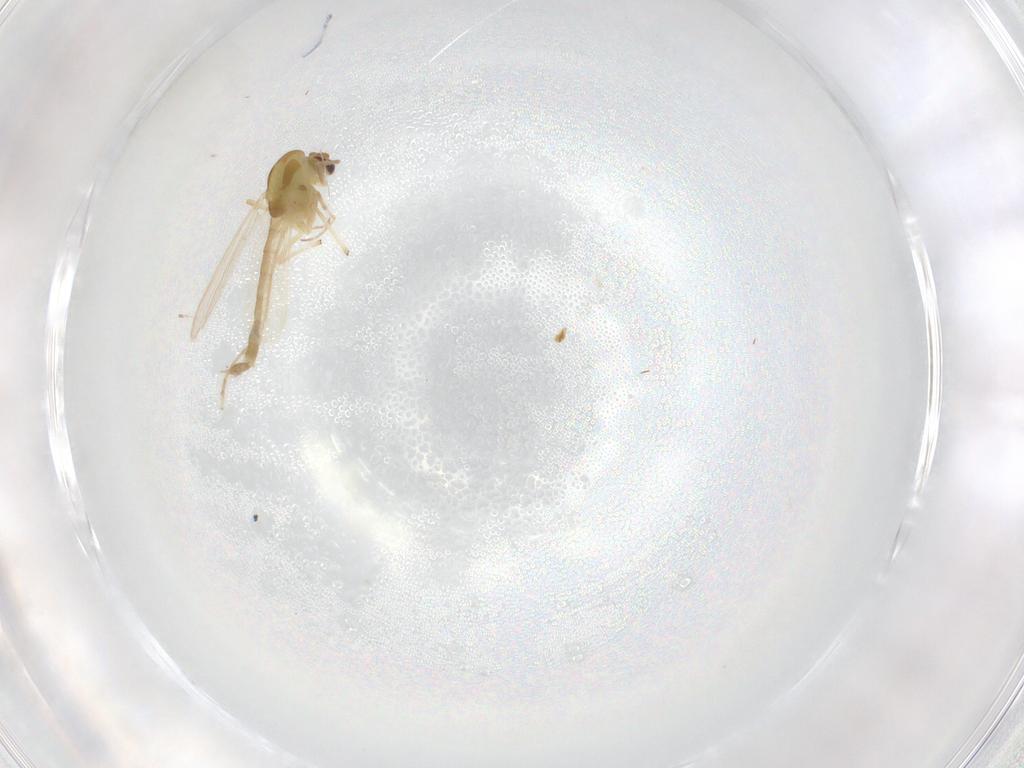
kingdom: Animalia
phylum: Arthropoda
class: Insecta
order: Diptera
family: Chironomidae
